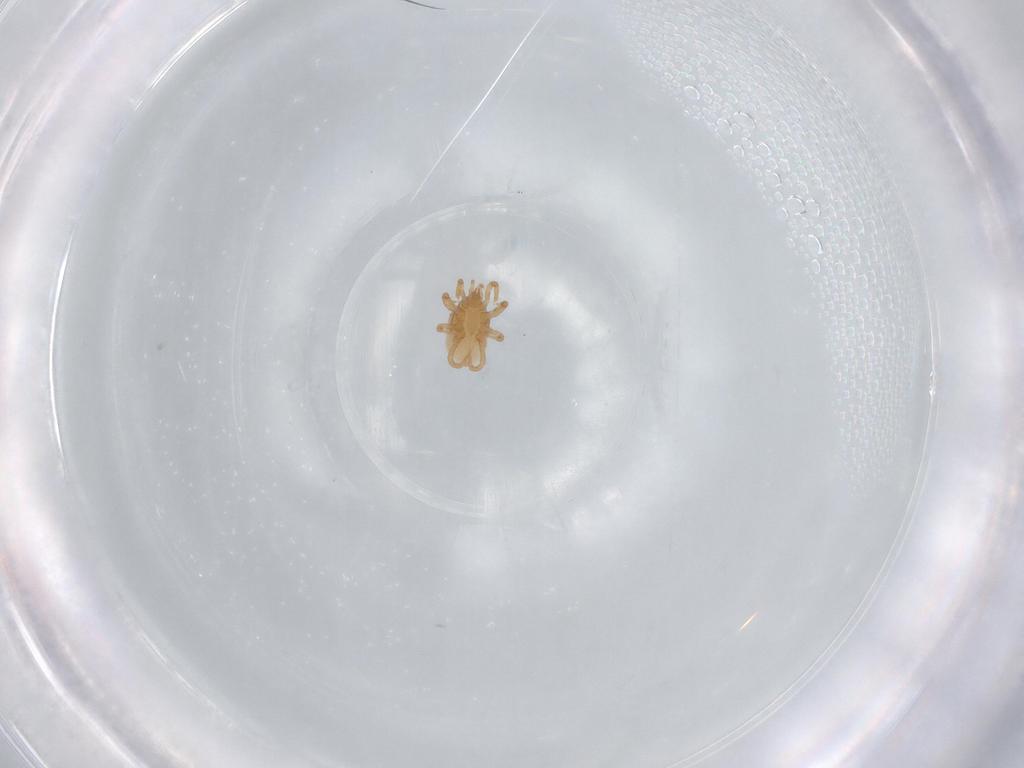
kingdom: Animalia
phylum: Arthropoda
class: Arachnida
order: Mesostigmata
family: Parasitidae
